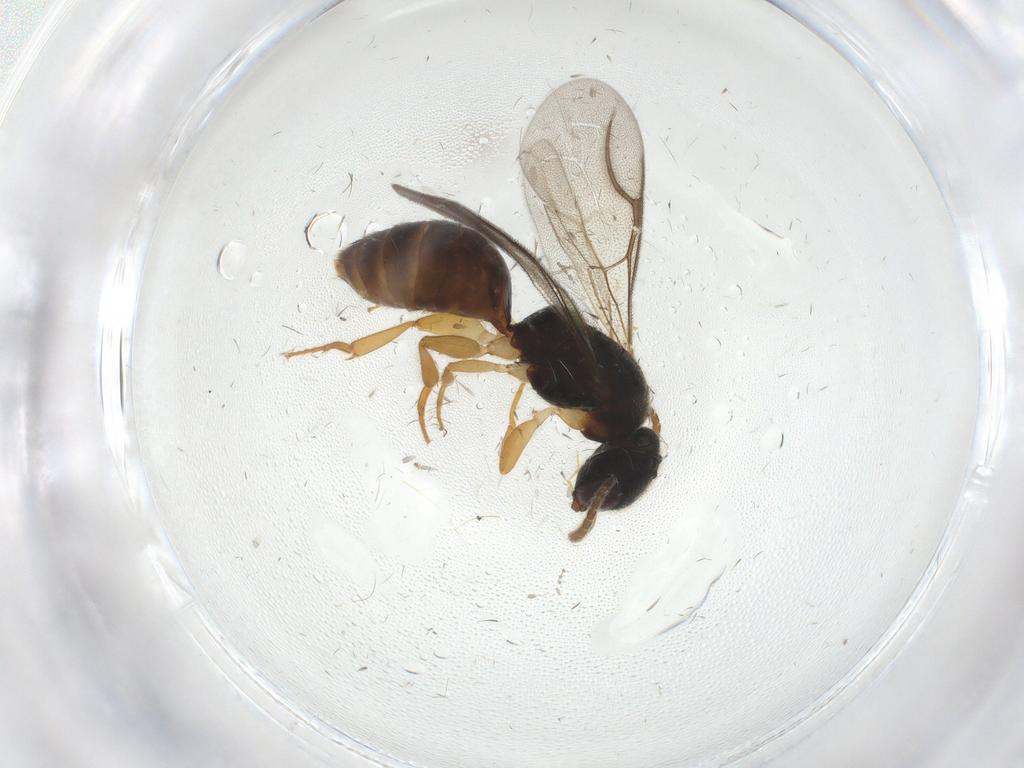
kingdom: Animalia
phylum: Arthropoda
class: Insecta
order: Hymenoptera
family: Bethylidae
